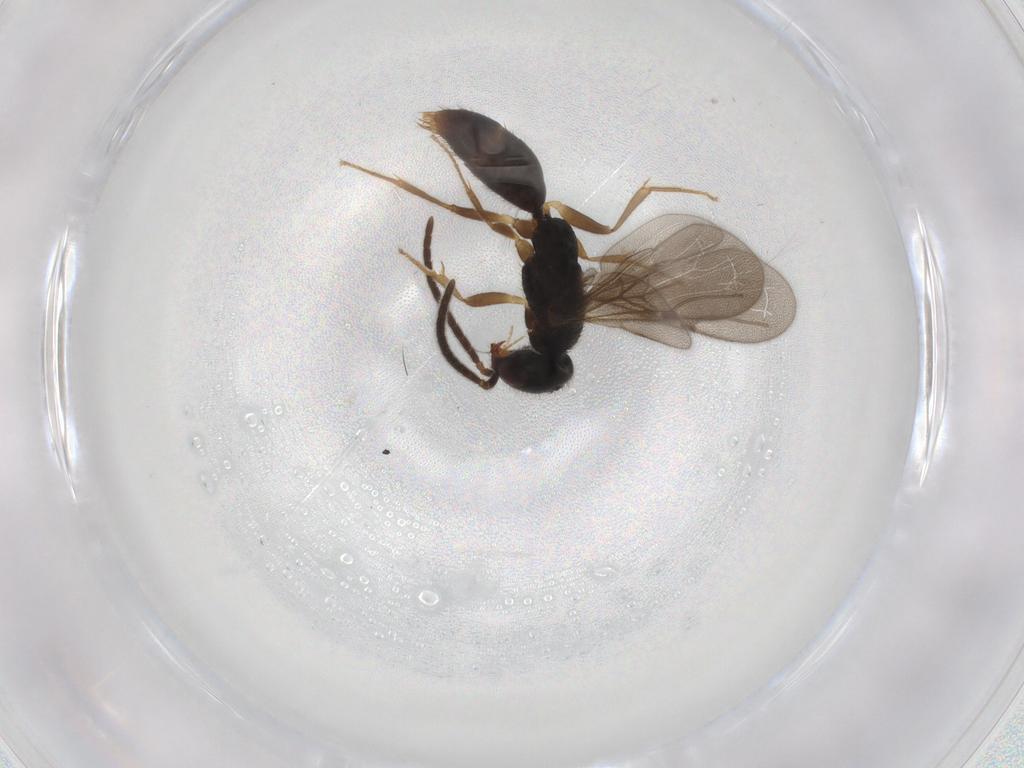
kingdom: Animalia
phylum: Arthropoda
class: Insecta
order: Hymenoptera
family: Bethylidae
